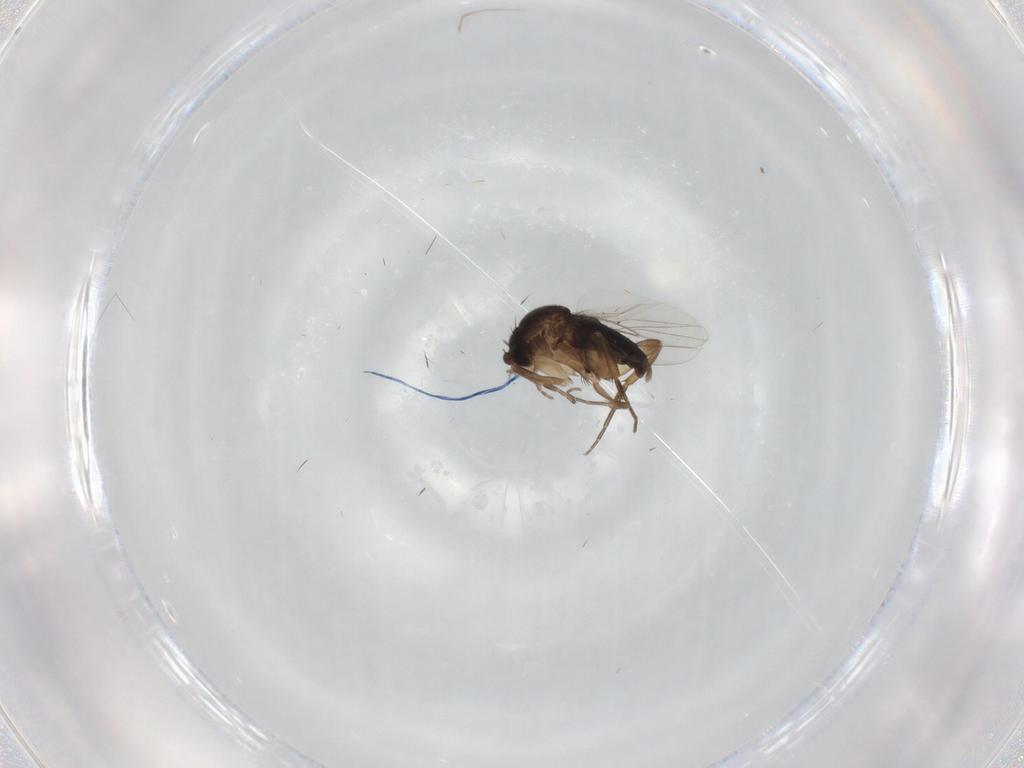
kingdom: Animalia
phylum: Arthropoda
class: Insecta
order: Diptera
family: Phoridae
